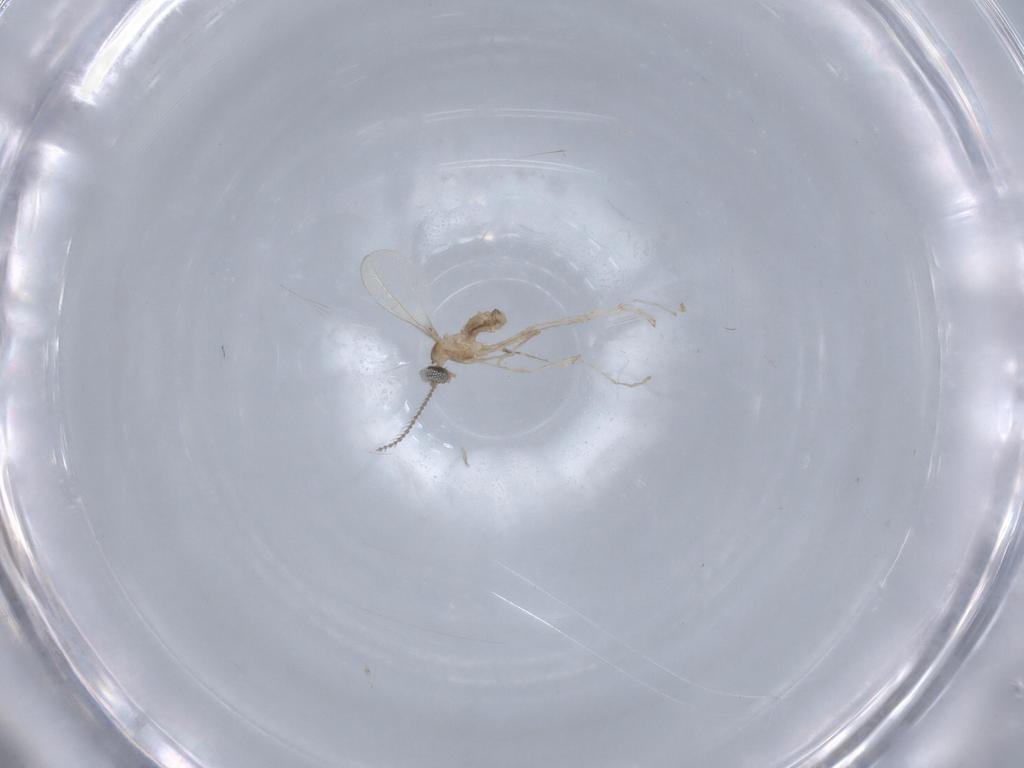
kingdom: Animalia
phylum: Arthropoda
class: Insecta
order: Diptera
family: Cecidomyiidae
